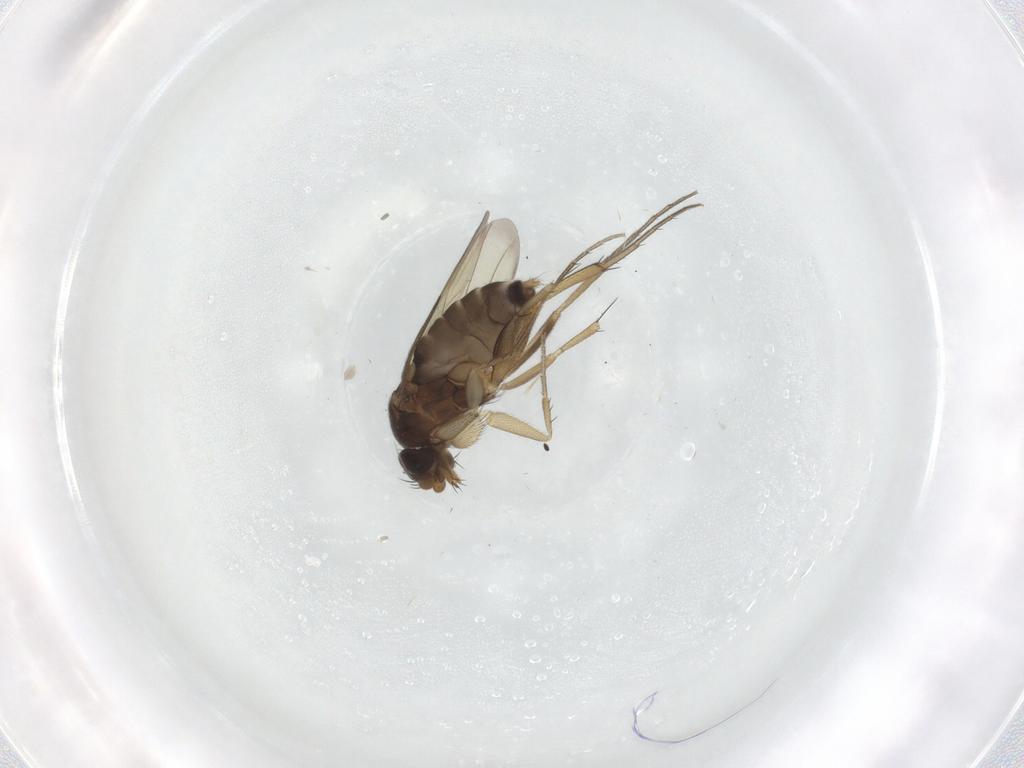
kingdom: Animalia
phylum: Arthropoda
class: Insecta
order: Diptera
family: Phoridae
